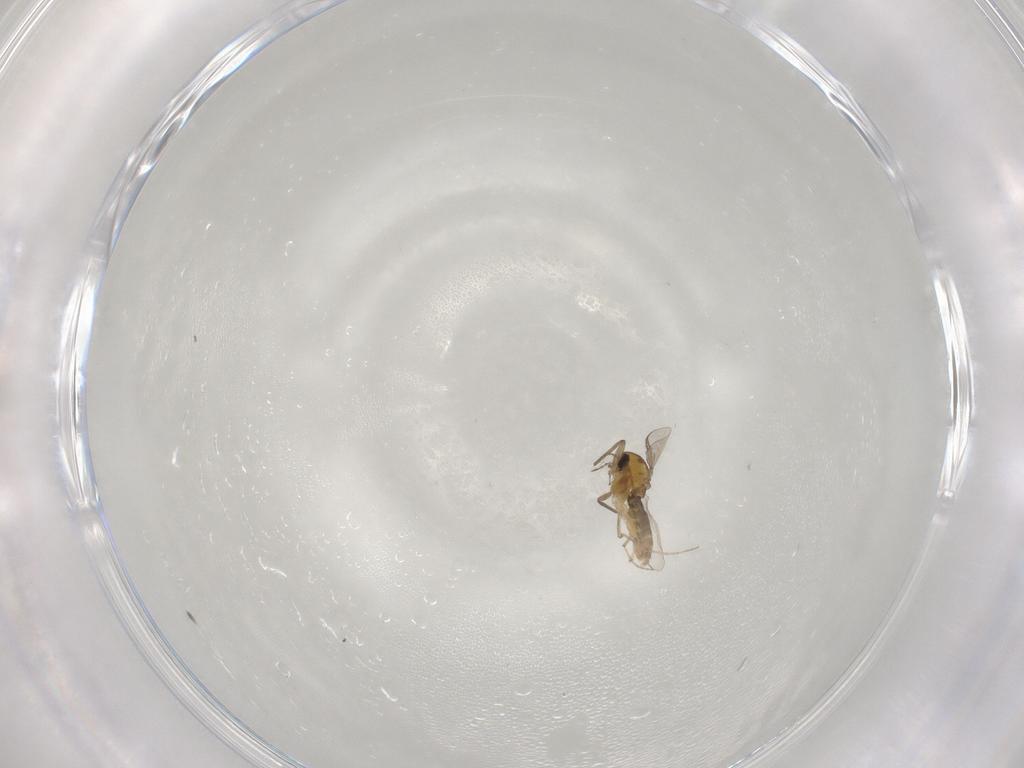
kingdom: Animalia
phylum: Arthropoda
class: Insecta
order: Diptera
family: Chironomidae
